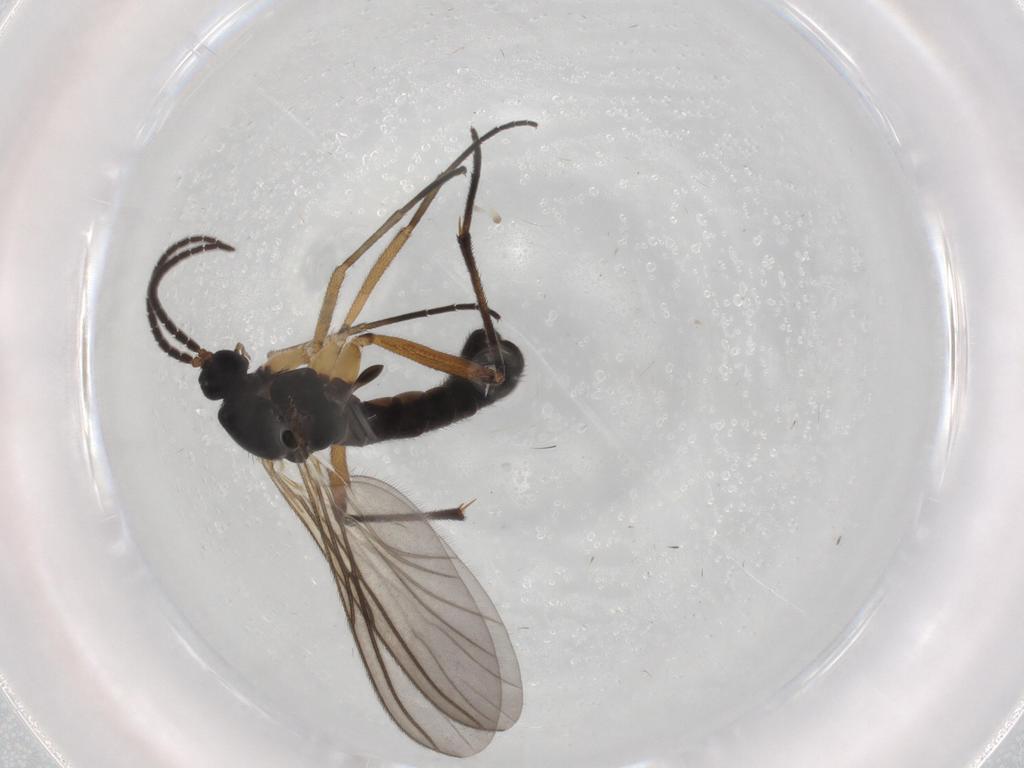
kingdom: Animalia
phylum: Arthropoda
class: Insecta
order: Diptera
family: Sciaridae
